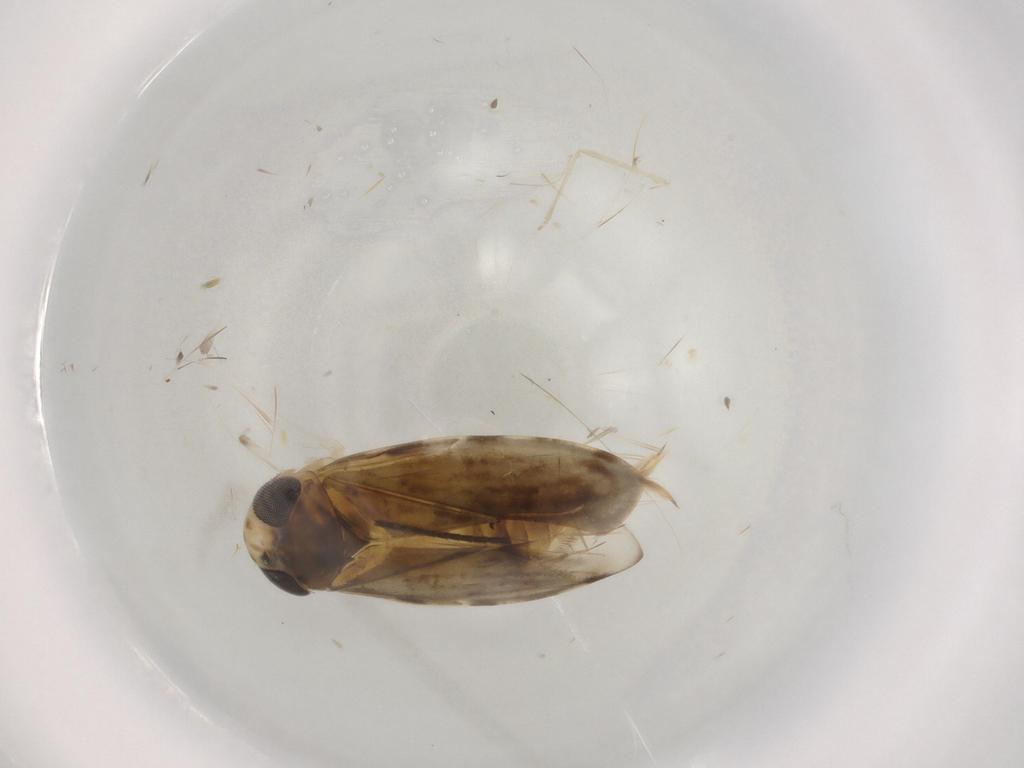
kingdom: Animalia
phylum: Arthropoda
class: Insecta
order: Hemiptera
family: Corixidae
